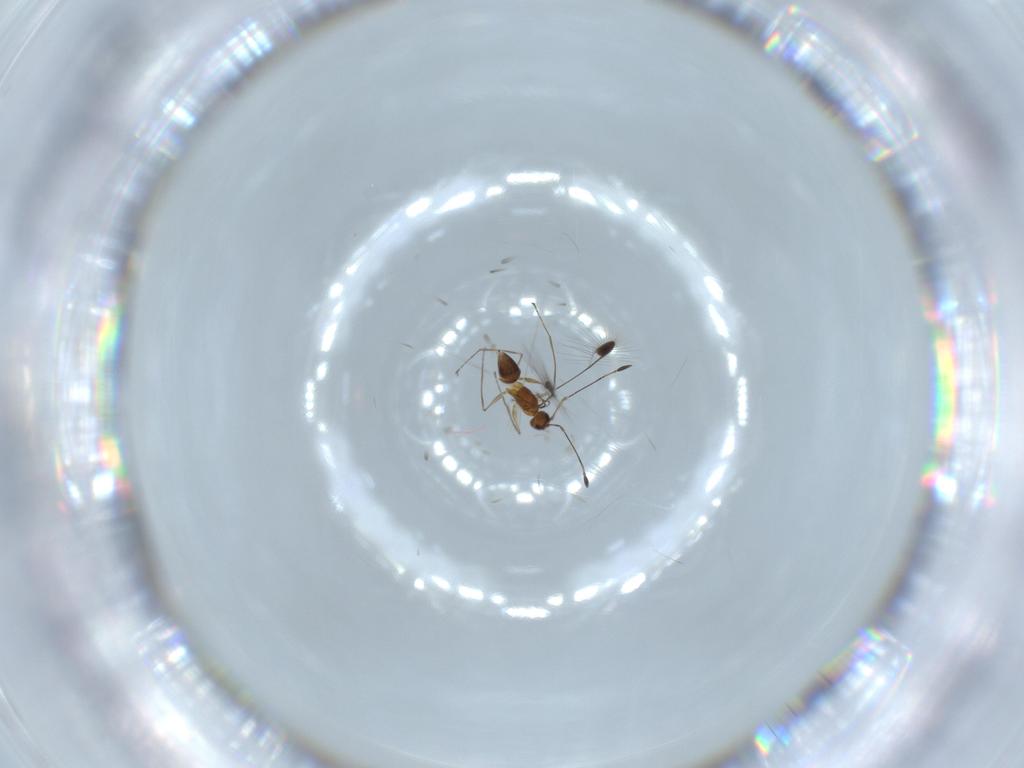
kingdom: Animalia
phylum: Arthropoda
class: Insecta
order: Hymenoptera
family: Mymaridae
